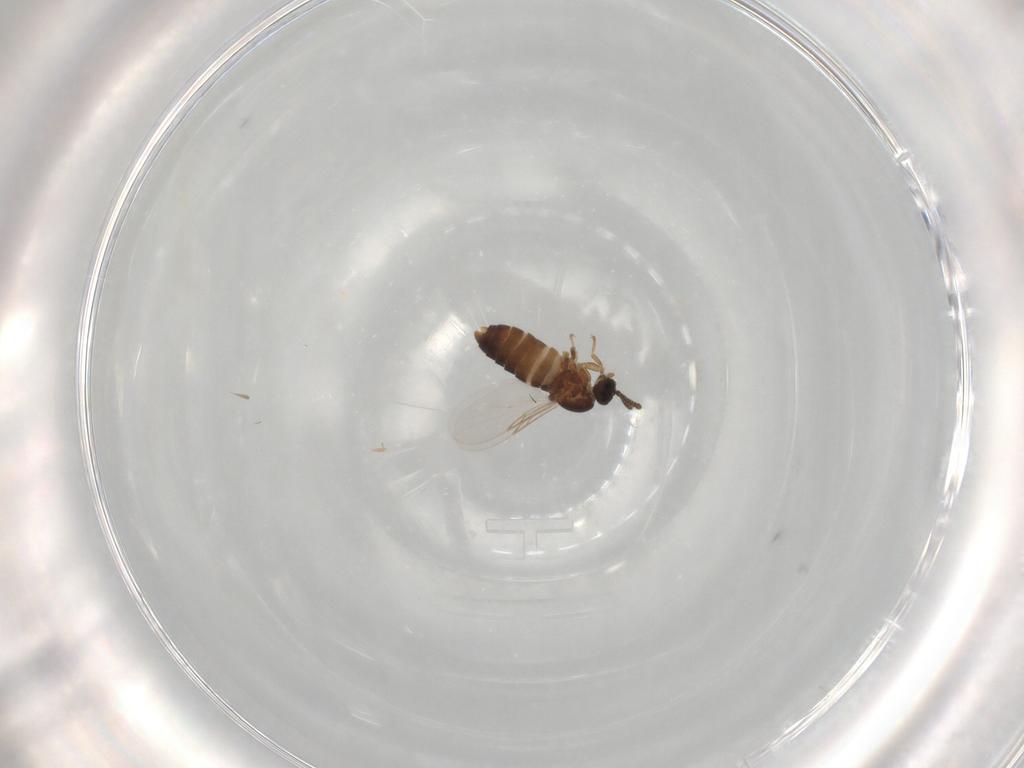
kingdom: Animalia
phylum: Arthropoda
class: Insecta
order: Diptera
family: Scatopsidae
